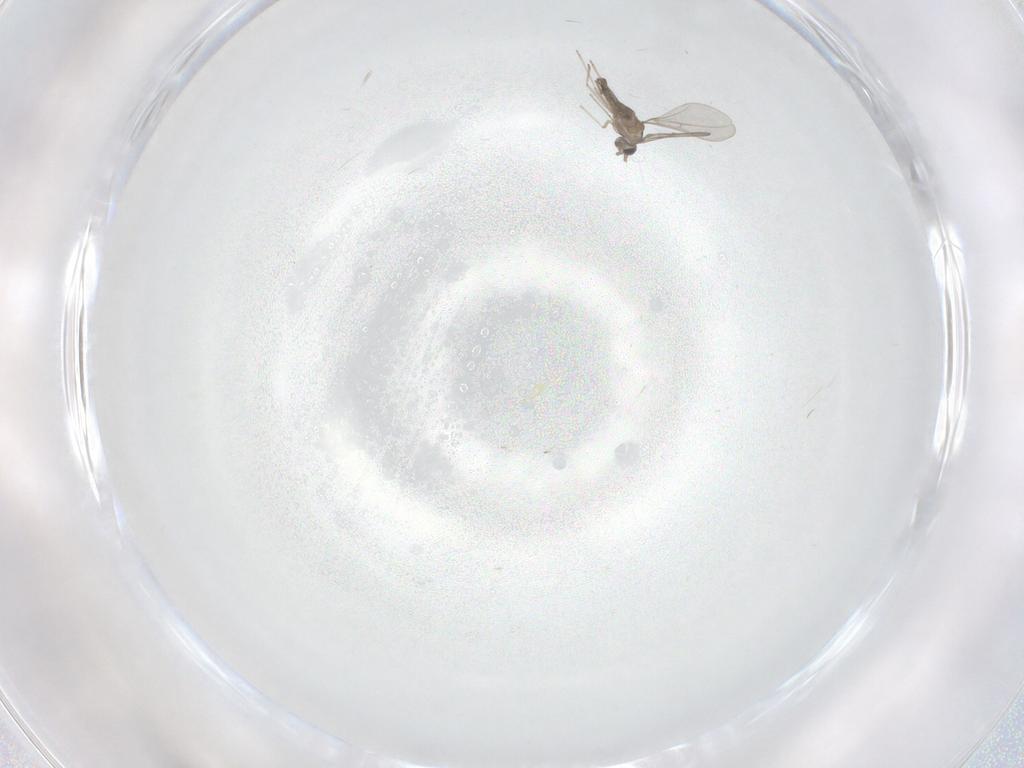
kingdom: Animalia
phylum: Arthropoda
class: Insecta
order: Diptera
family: Cecidomyiidae
